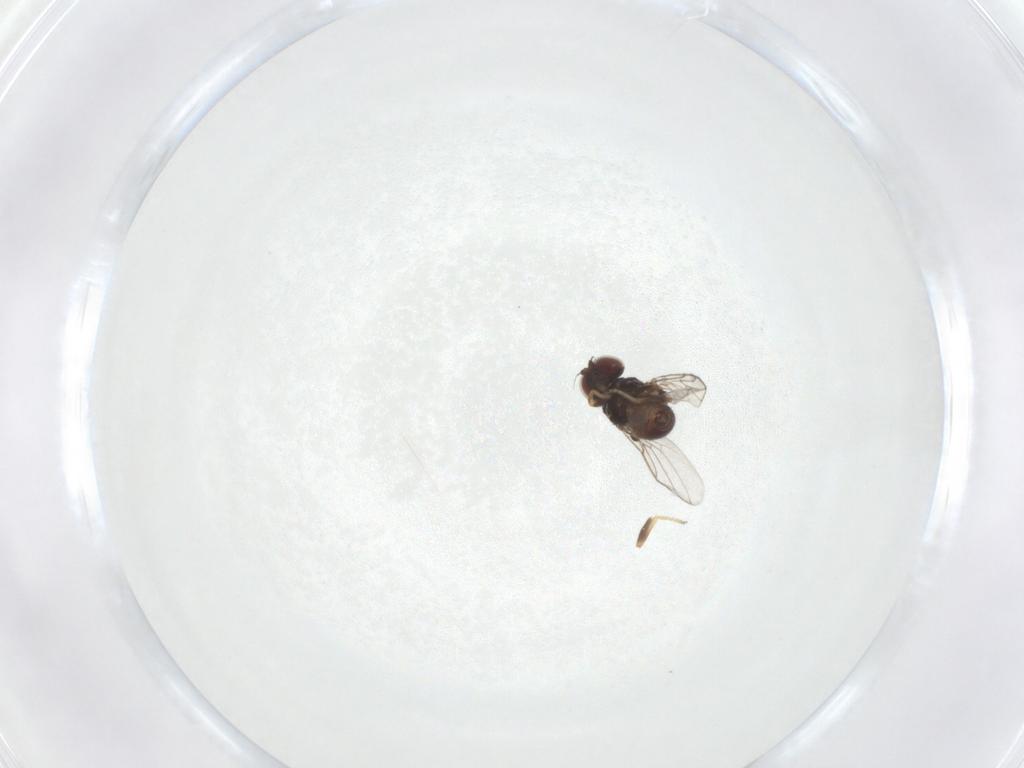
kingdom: Animalia
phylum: Arthropoda
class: Insecta
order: Diptera
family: Chloropidae
